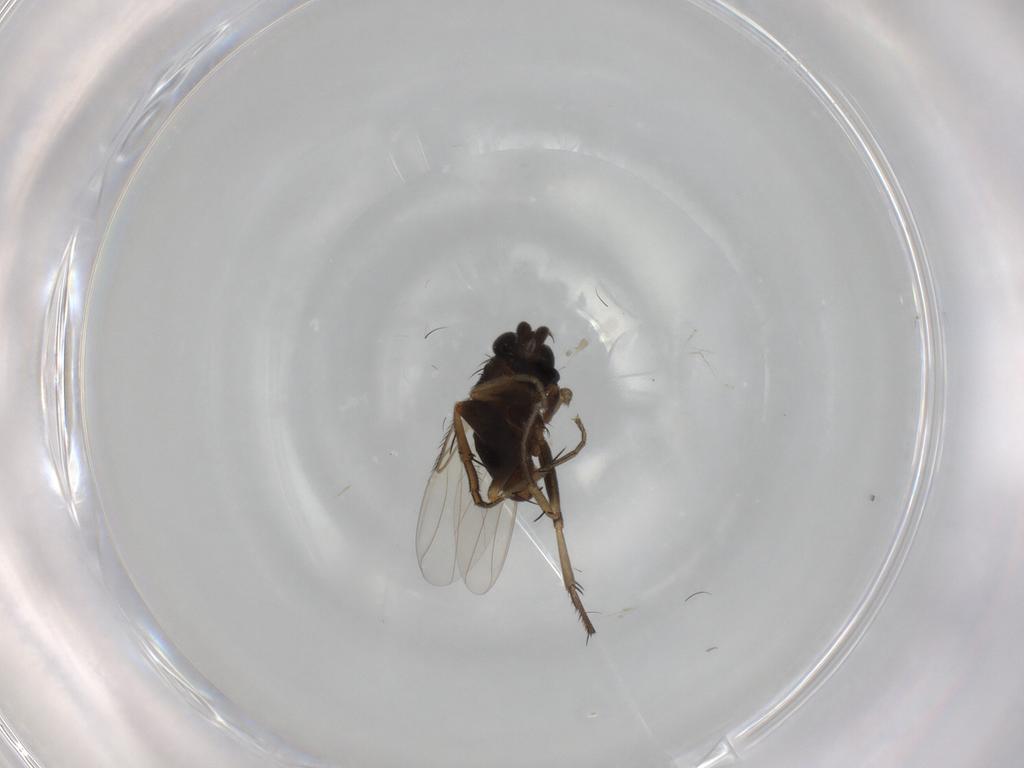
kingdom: Animalia
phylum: Arthropoda
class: Insecta
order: Diptera
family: Phoridae
